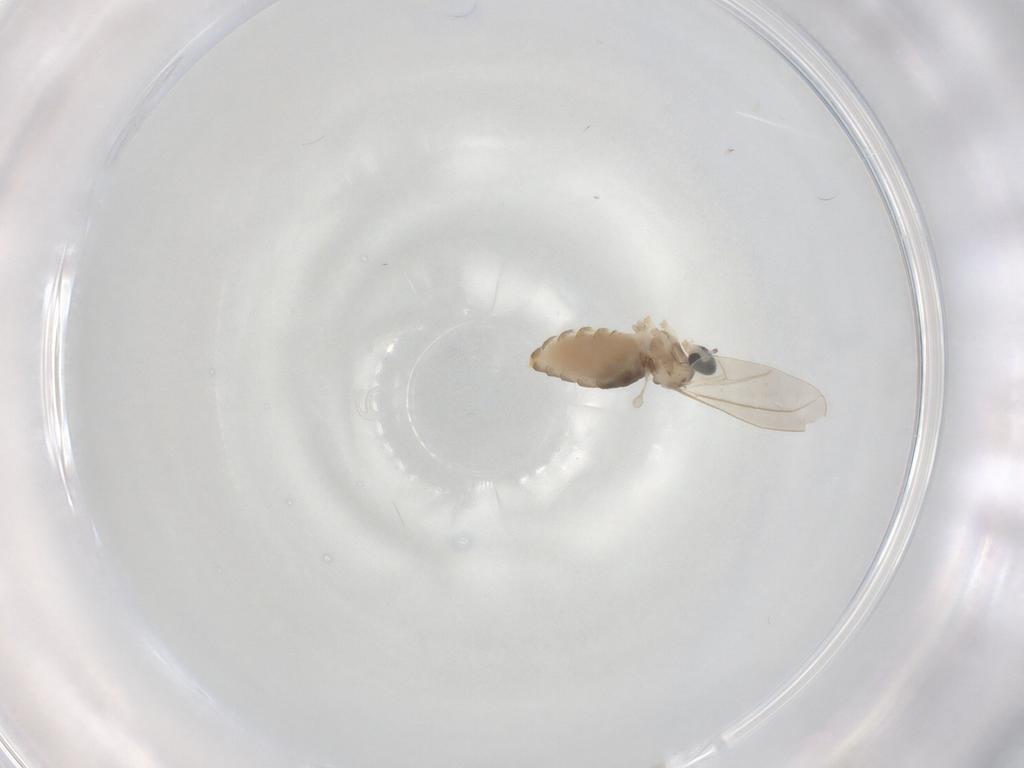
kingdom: Animalia
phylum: Arthropoda
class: Insecta
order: Diptera
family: Cecidomyiidae
